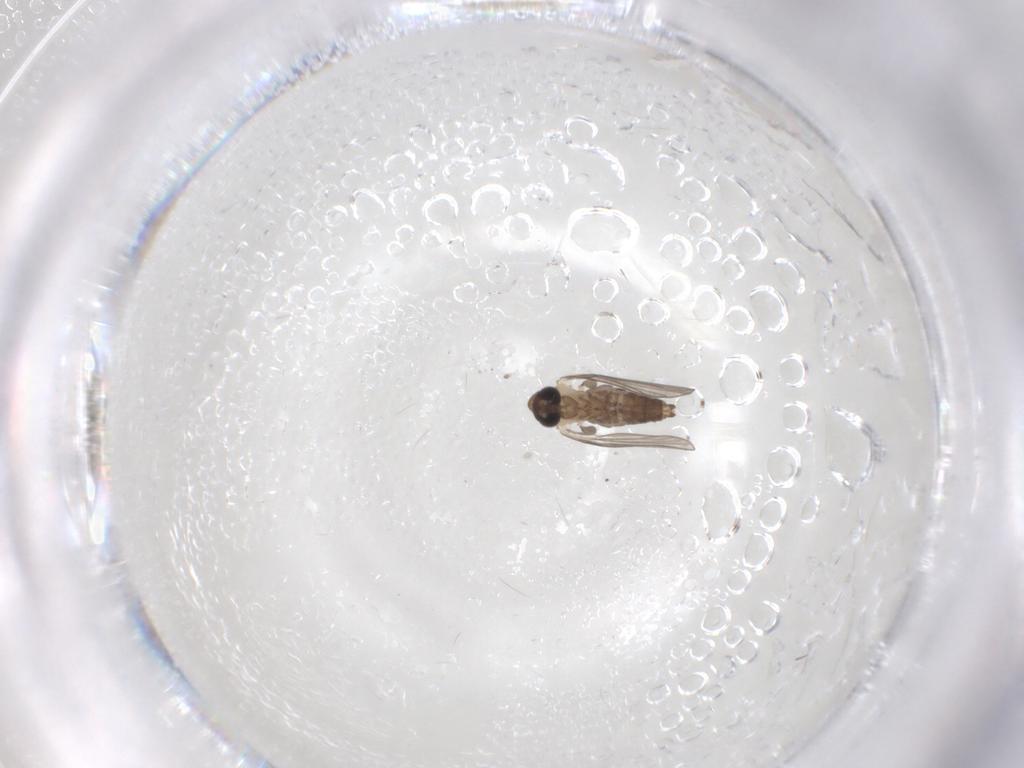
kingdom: Animalia
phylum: Arthropoda
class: Insecta
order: Diptera
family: Psychodidae
